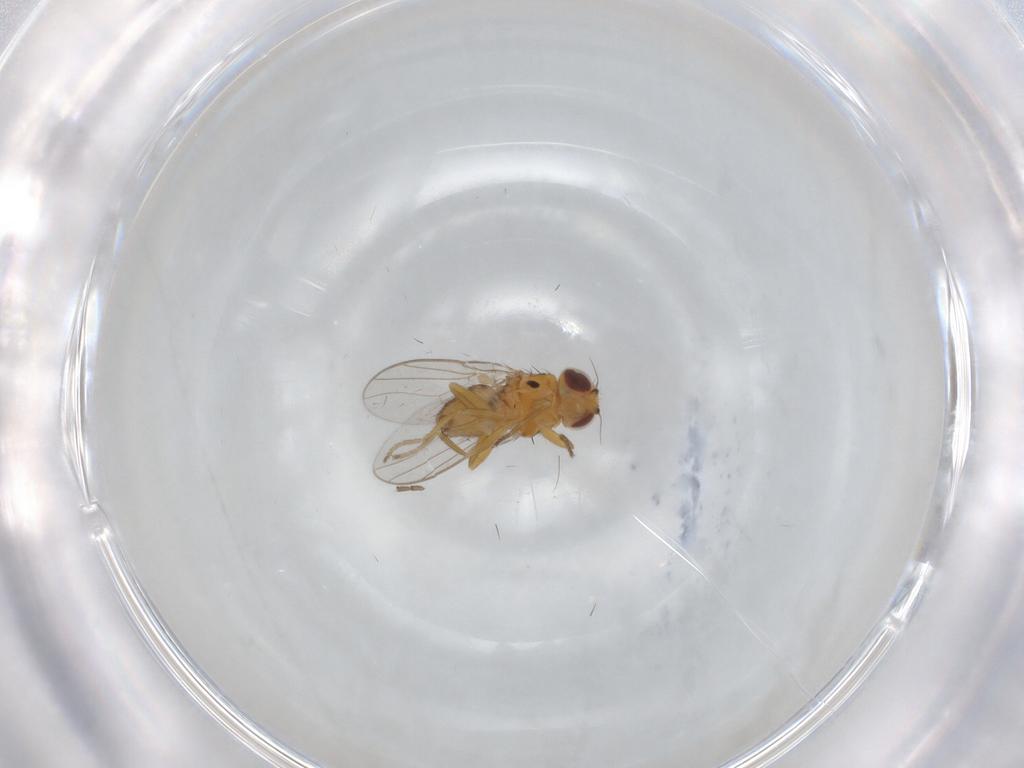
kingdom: Animalia
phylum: Arthropoda
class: Insecta
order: Diptera
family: Chloropidae
